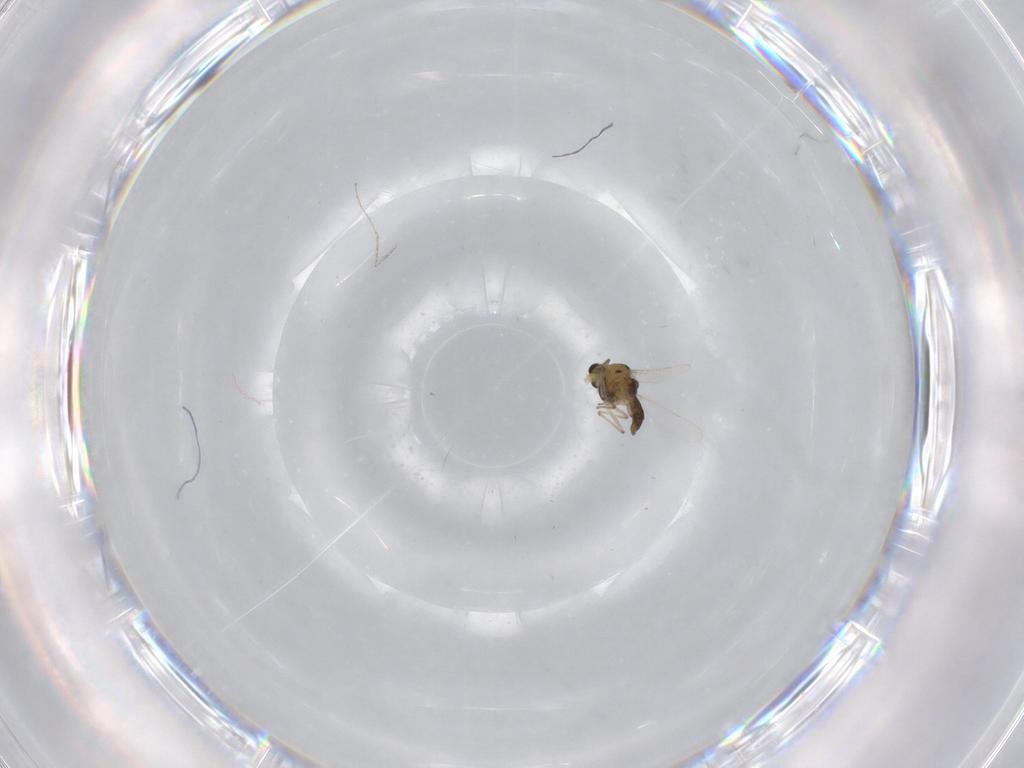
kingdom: Animalia
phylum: Arthropoda
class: Insecta
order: Diptera
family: Cecidomyiidae
